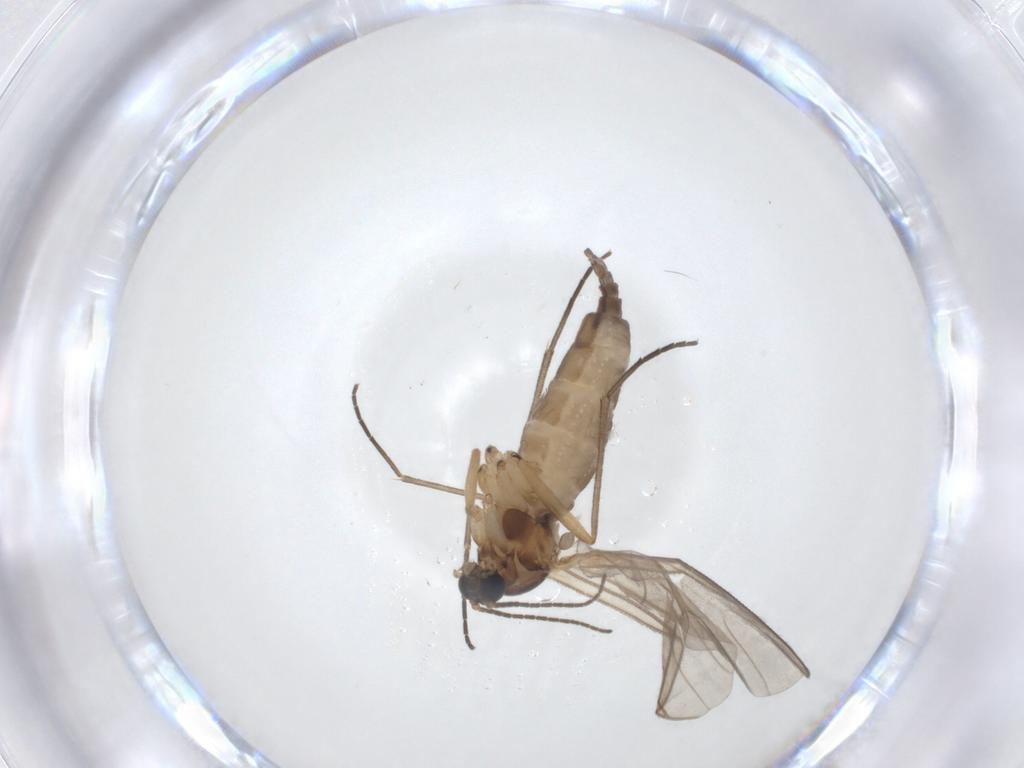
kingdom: Animalia
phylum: Arthropoda
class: Insecta
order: Diptera
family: Sciaridae
